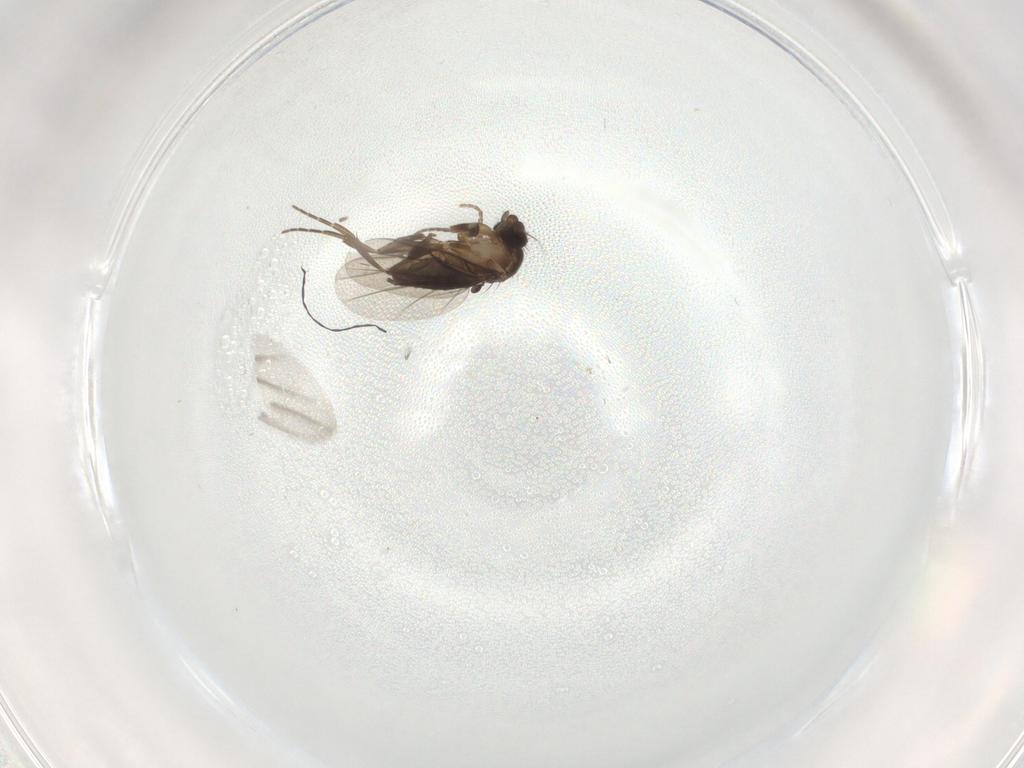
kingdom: Animalia
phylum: Arthropoda
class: Insecta
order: Diptera
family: Phoridae
